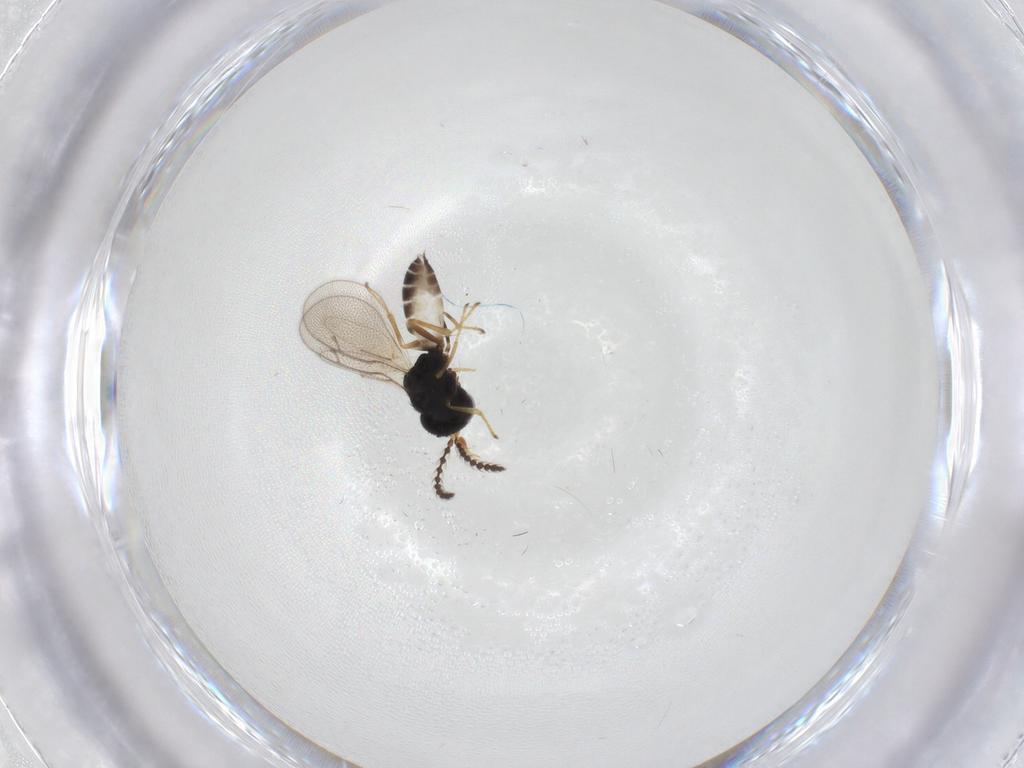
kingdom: Animalia
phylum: Arthropoda
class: Insecta
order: Hymenoptera
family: Pteromalidae
